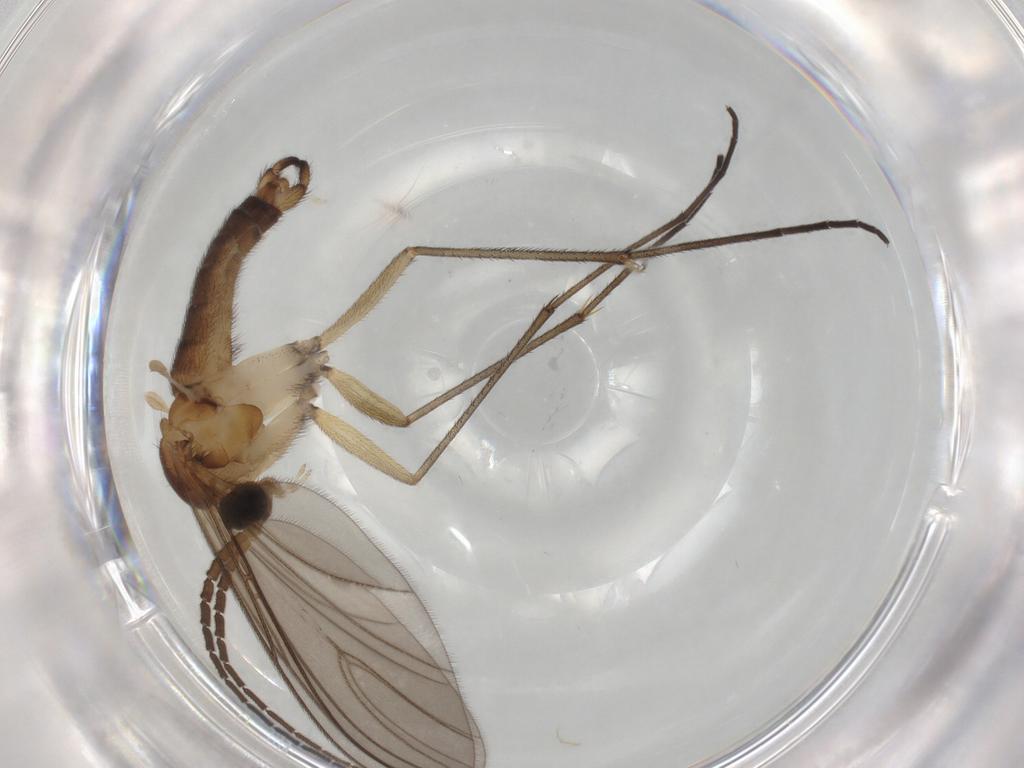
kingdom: Animalia
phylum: Arthropoda
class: Insecta
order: Diptera
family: Sciaridae
